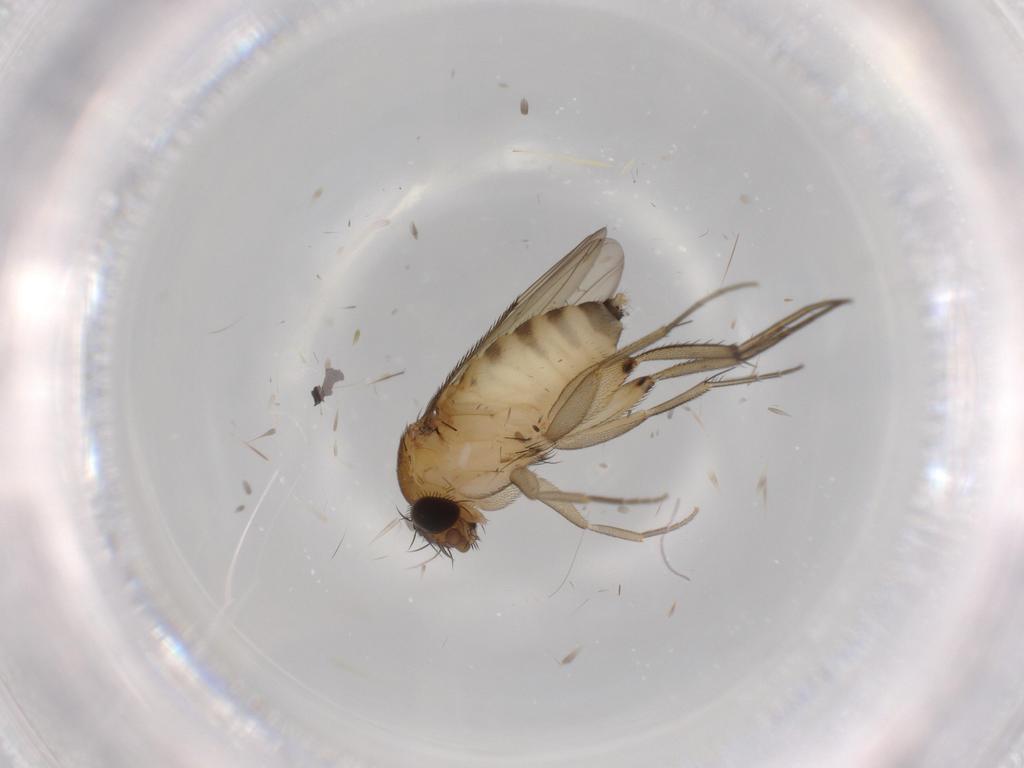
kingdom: Animalia
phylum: Arthropoda
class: Insecta
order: Diptera
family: Phoridae
